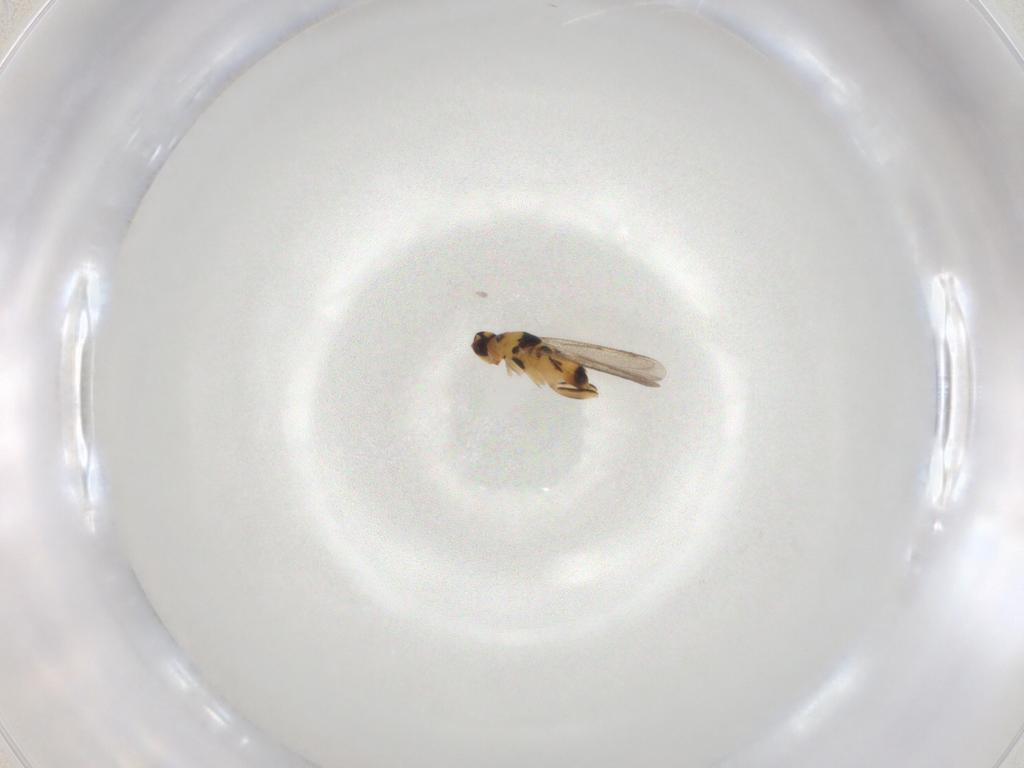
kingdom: Animalia
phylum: Arthropoda
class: Insecta
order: Hymenoptera
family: Eulophidae
